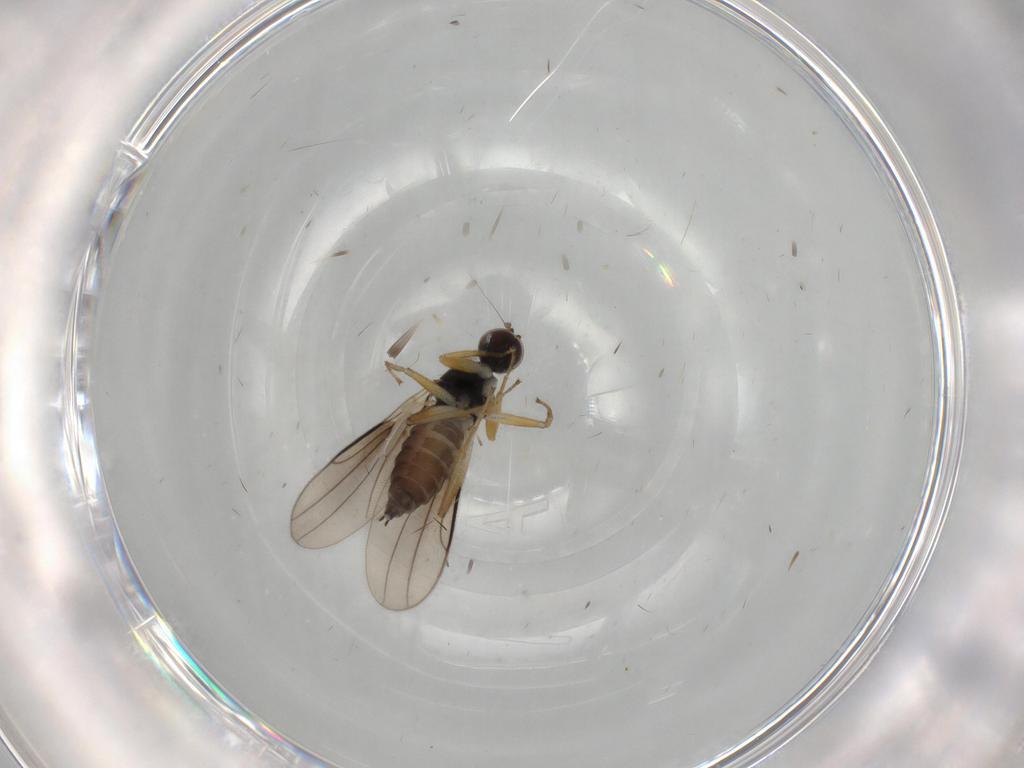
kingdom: Animalia
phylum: Arthropoda
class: Insecta
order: Diptera
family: Hybotidae
